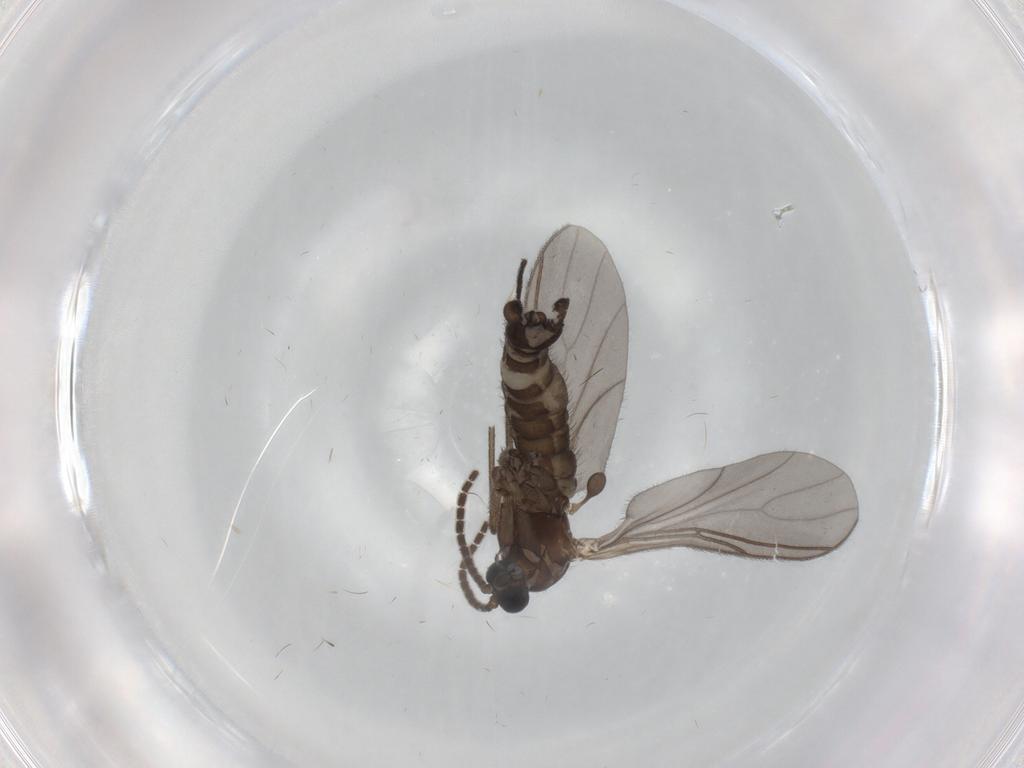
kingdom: Animalia
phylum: Arthropoda
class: Insecta
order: Diptera
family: Sciaridae
